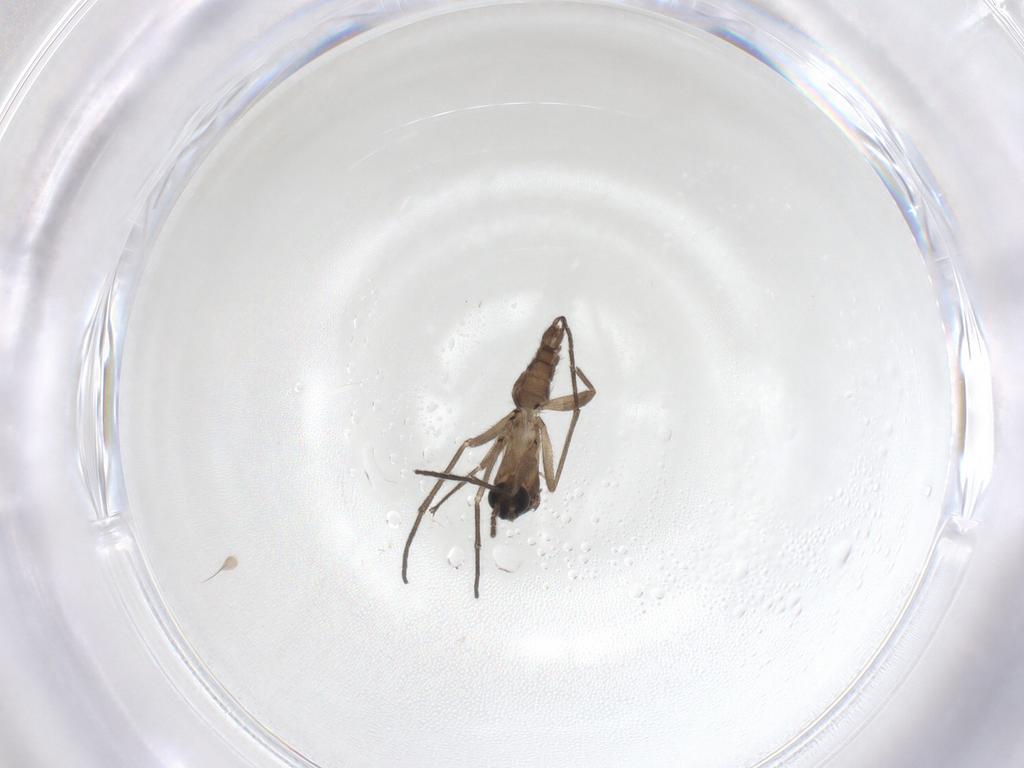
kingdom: Animalia
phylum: Arthropoda
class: Insecta
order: Diptera
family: Sciaridae
